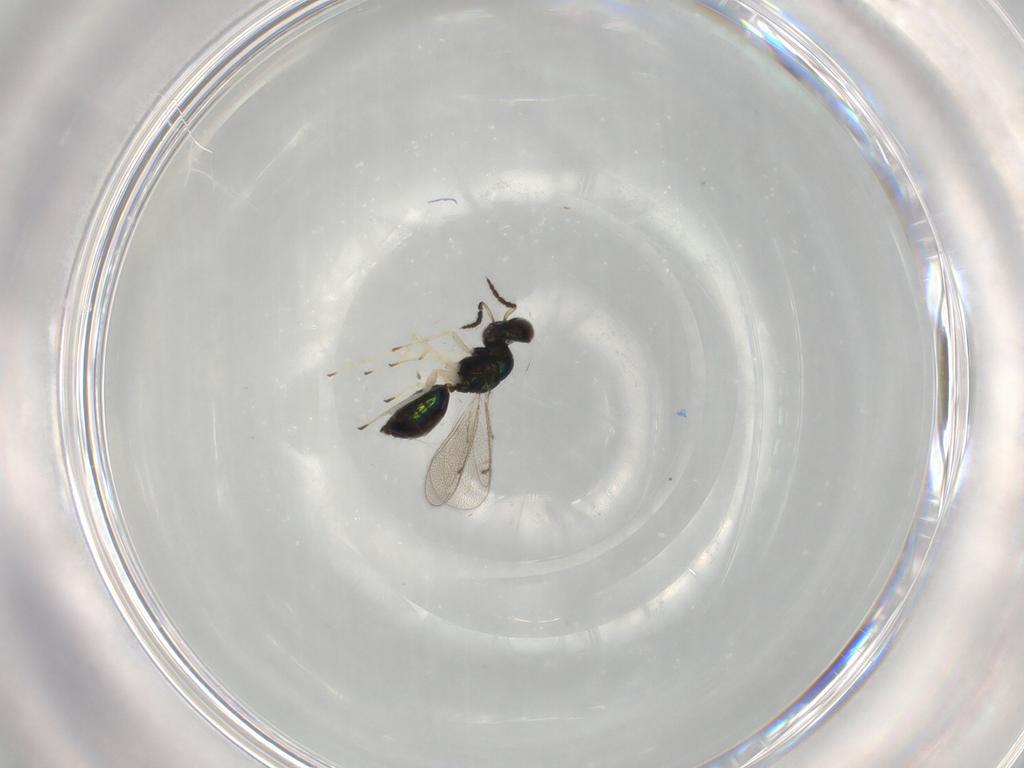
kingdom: Animalia
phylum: Arthropoda
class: Insecta
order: Hymenoptera
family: Eulophidae
